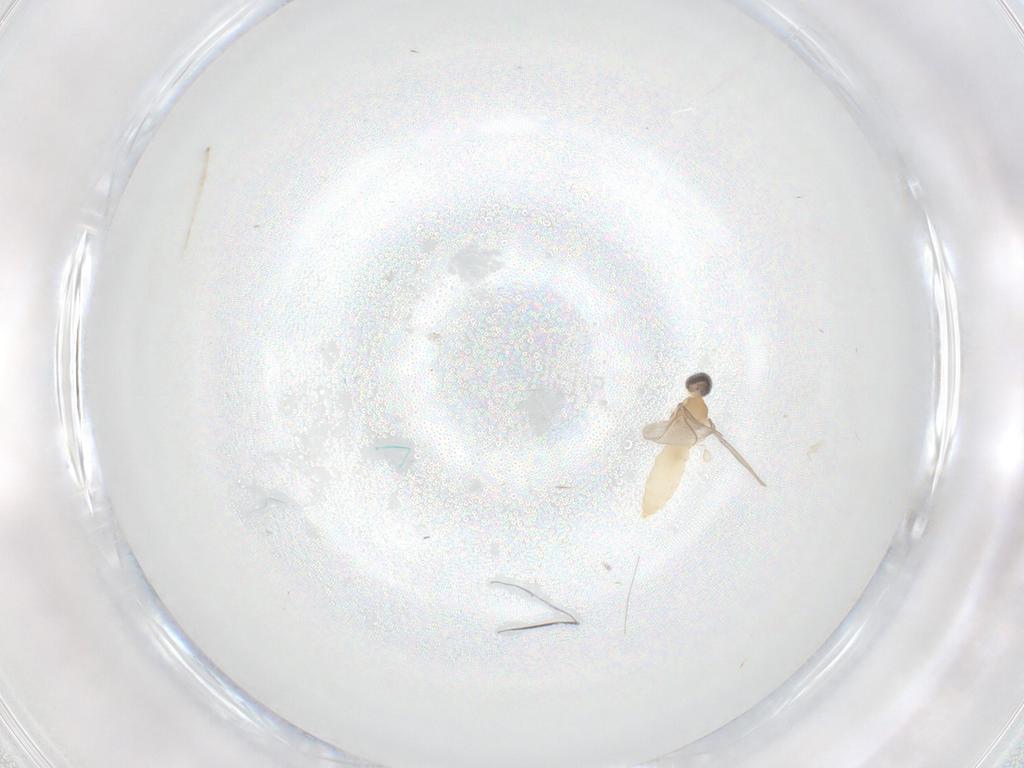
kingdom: Animalia
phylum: Arthropoda
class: Insecta
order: Diptera
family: Cecidomyiidae
